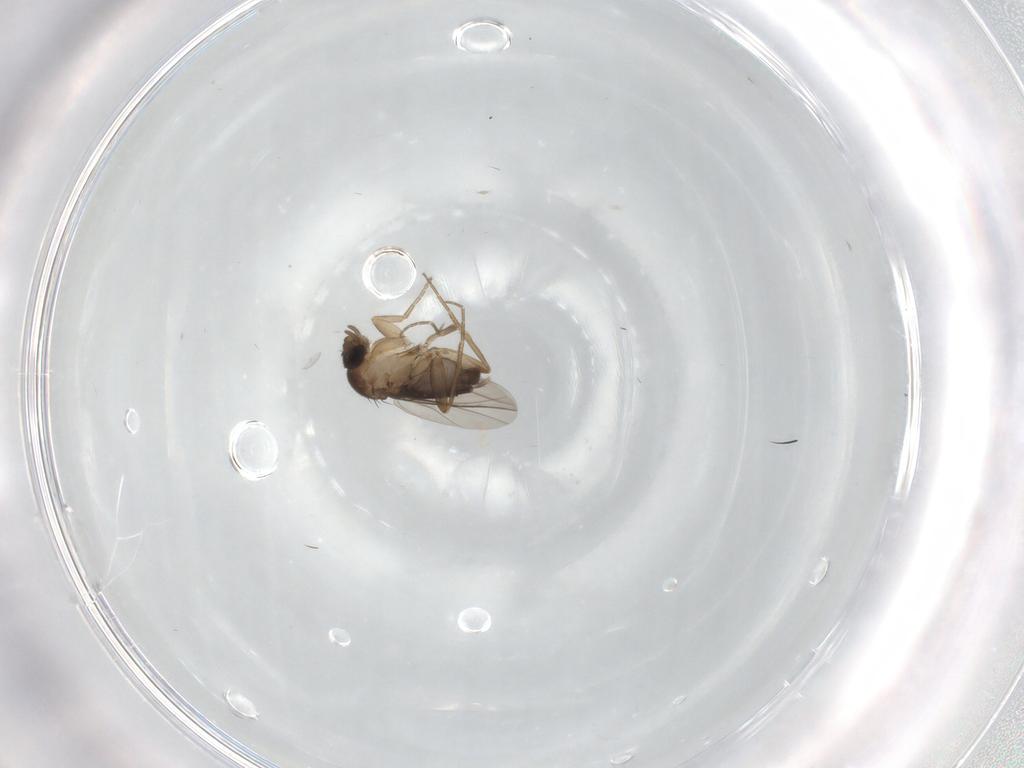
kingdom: Animalia
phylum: Arthropoda
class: Insecta
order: Diptera
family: Phoridae
